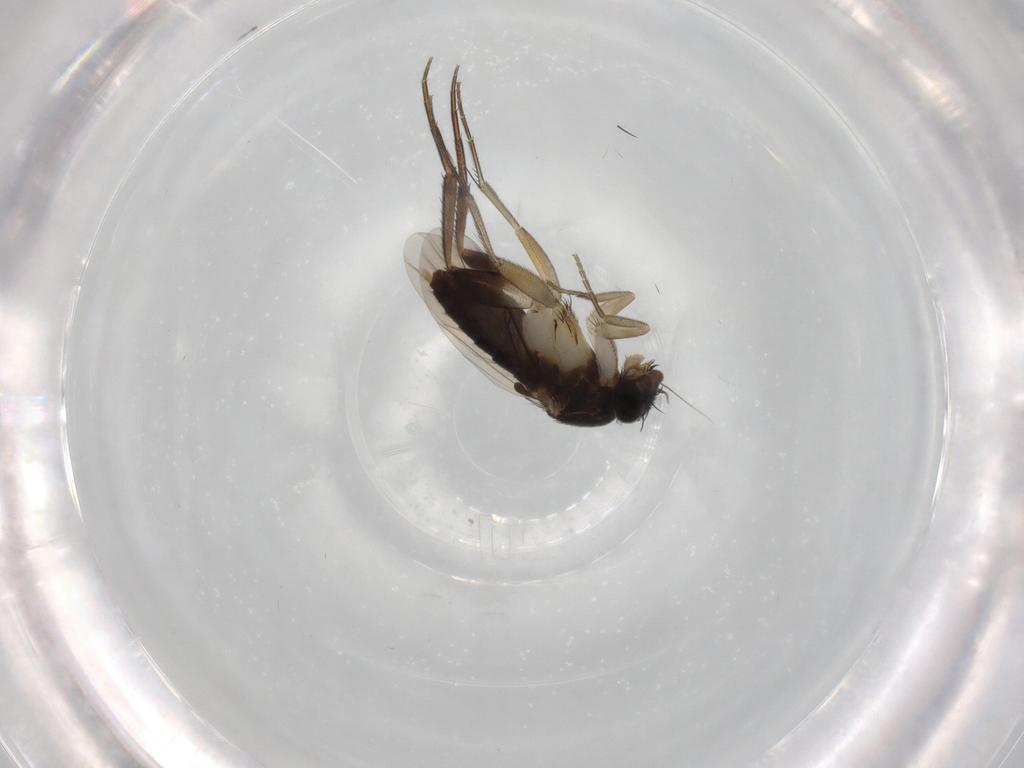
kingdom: Animalia
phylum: Arthropoda
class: Insecta
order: Diptera
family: Phoridae
